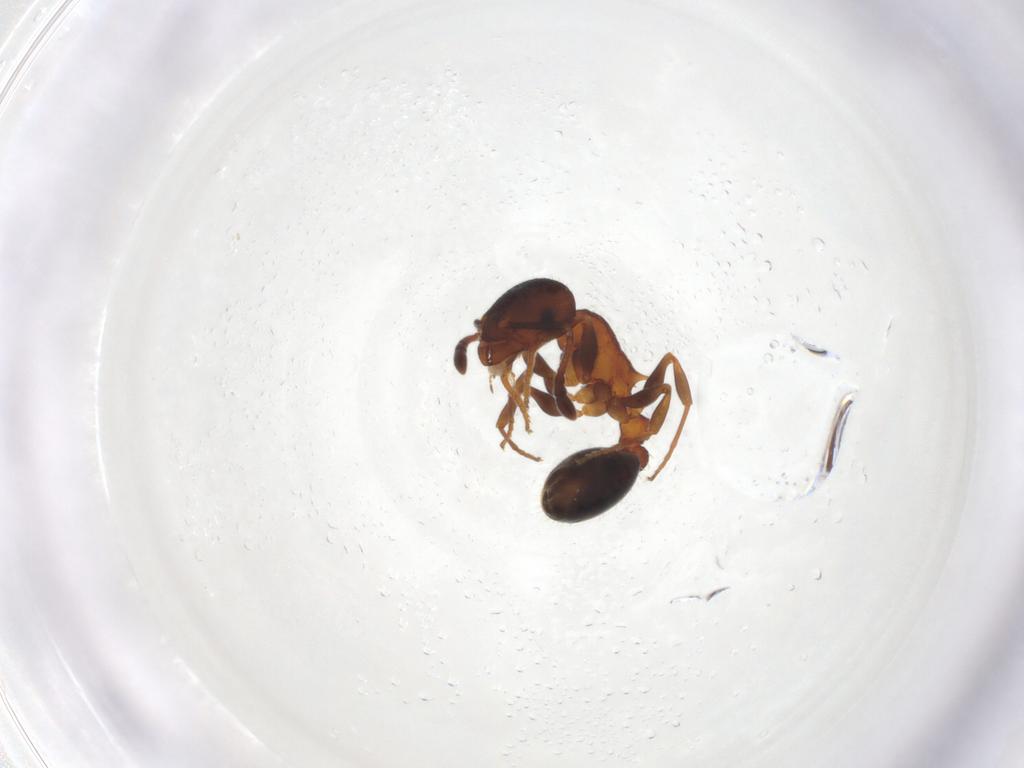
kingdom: Animalia
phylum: Arthropoda
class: Insecta
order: Hymenoptera
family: Formicidae
